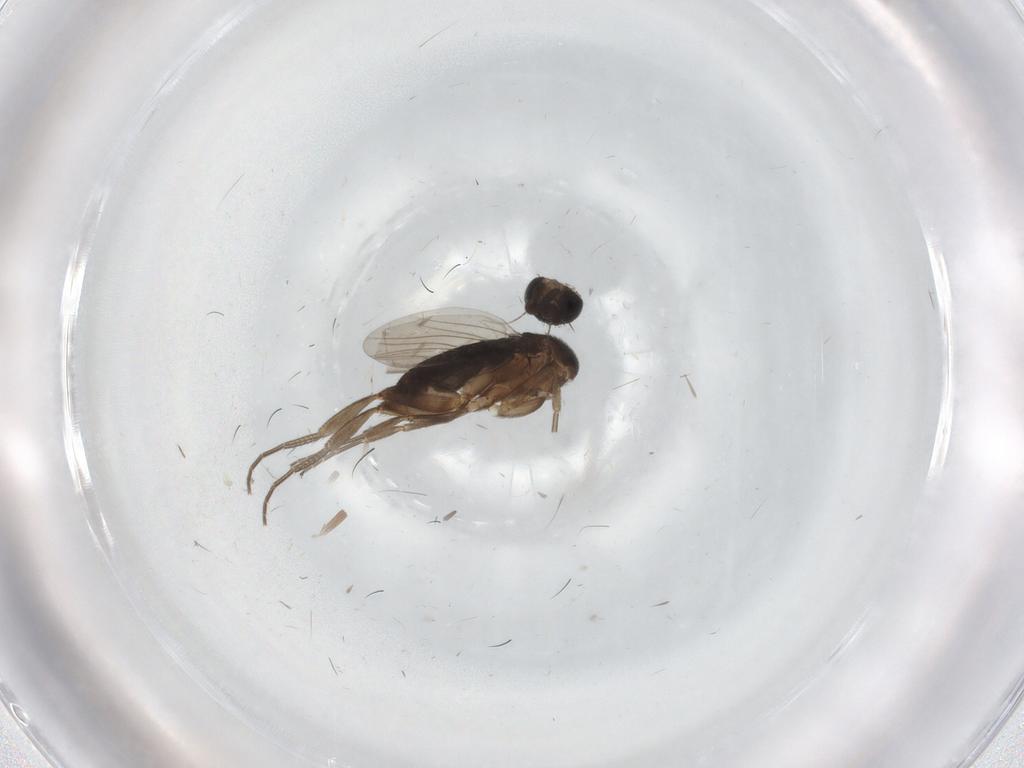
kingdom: Animalia
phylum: Arthropoda
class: Insecta
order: Diptera
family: Phoridae
